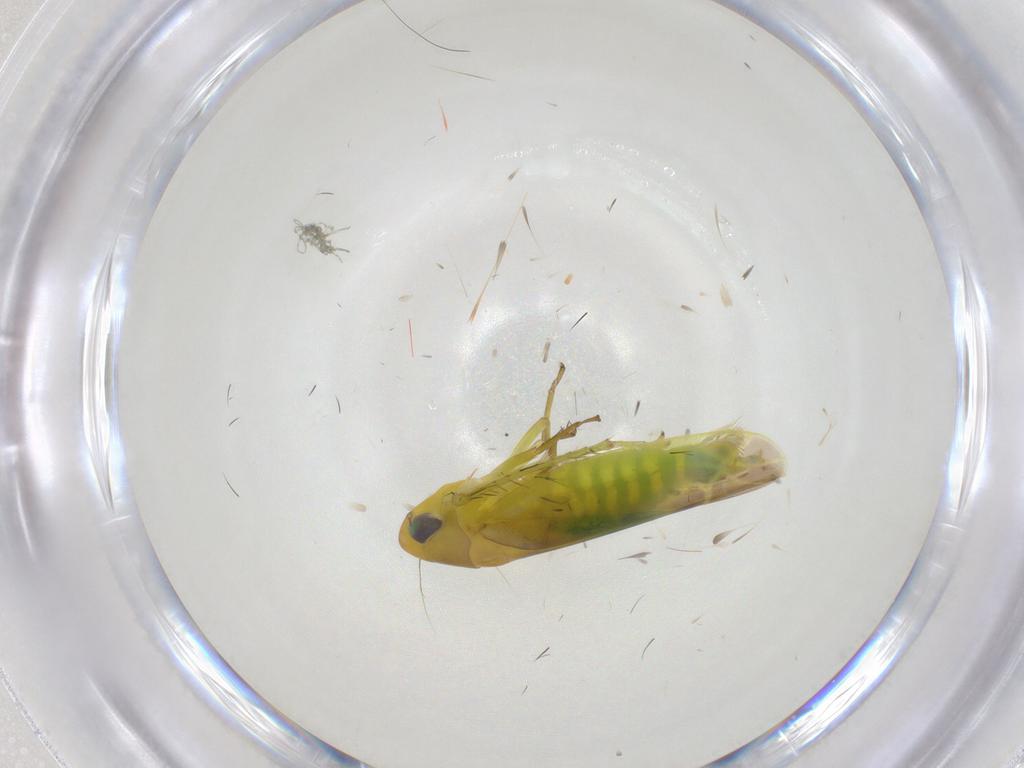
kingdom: Animalia
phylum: Arthropoda
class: Insecta
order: Hemiptera
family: Cicadellidae
